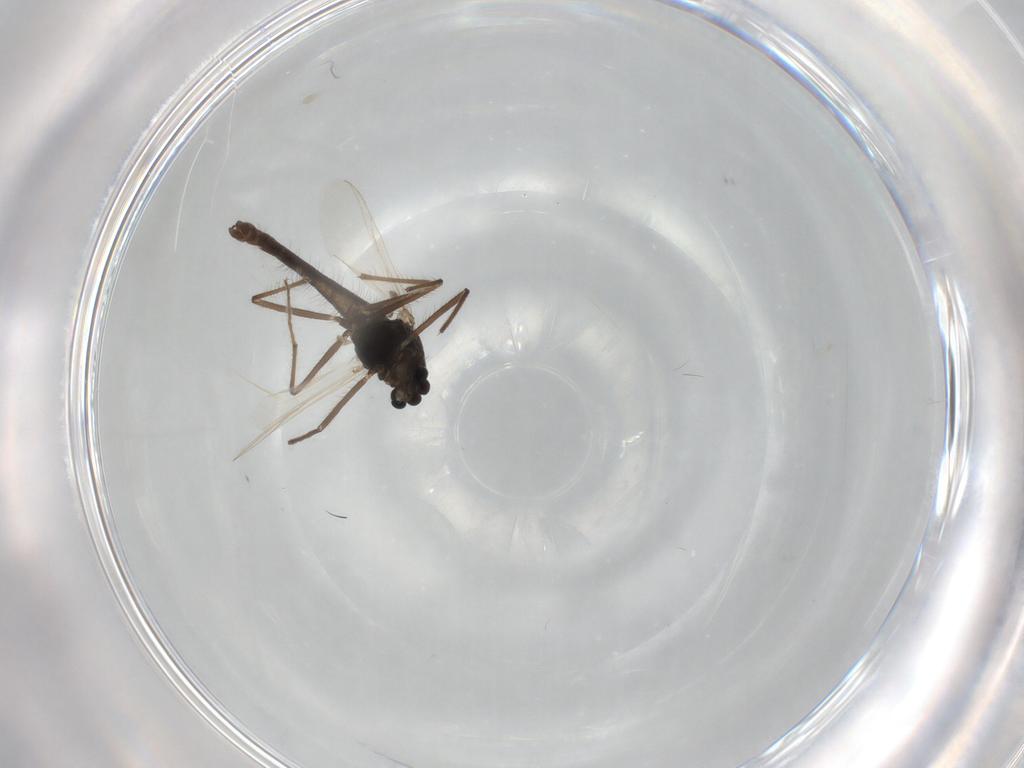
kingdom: Animalia
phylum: Arthropoda
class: Insecta
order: Diptera
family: Chironomidae
